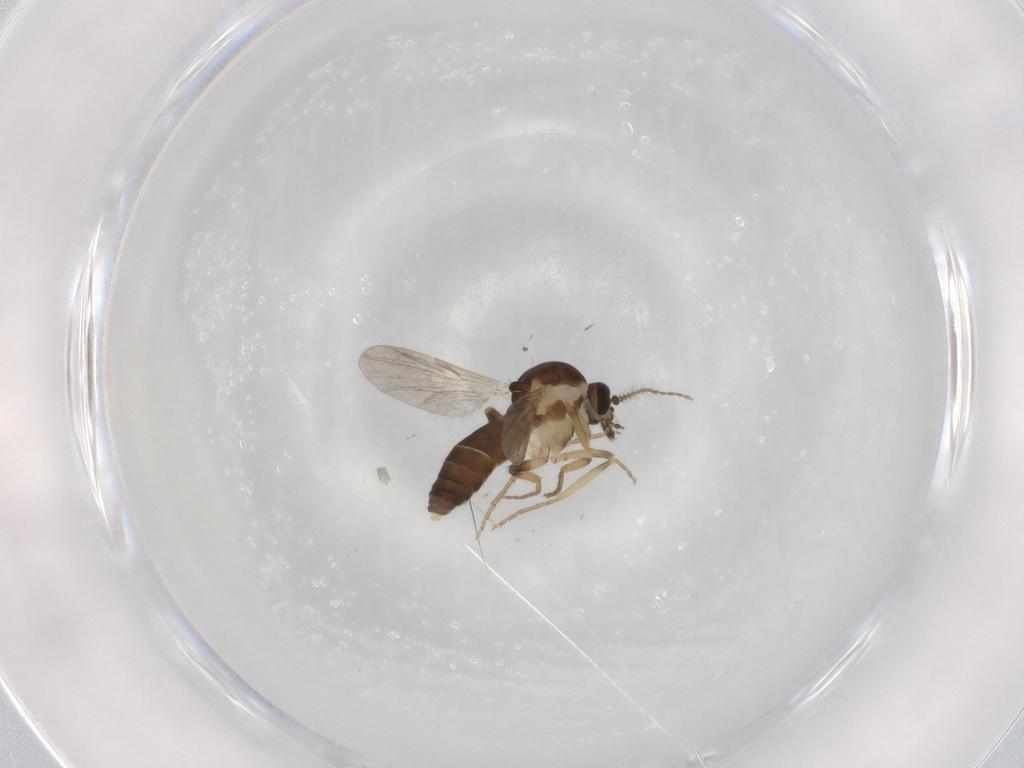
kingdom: Animalia
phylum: Arthropoda
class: Insecta
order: Diptera
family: Ceratopogonidae
